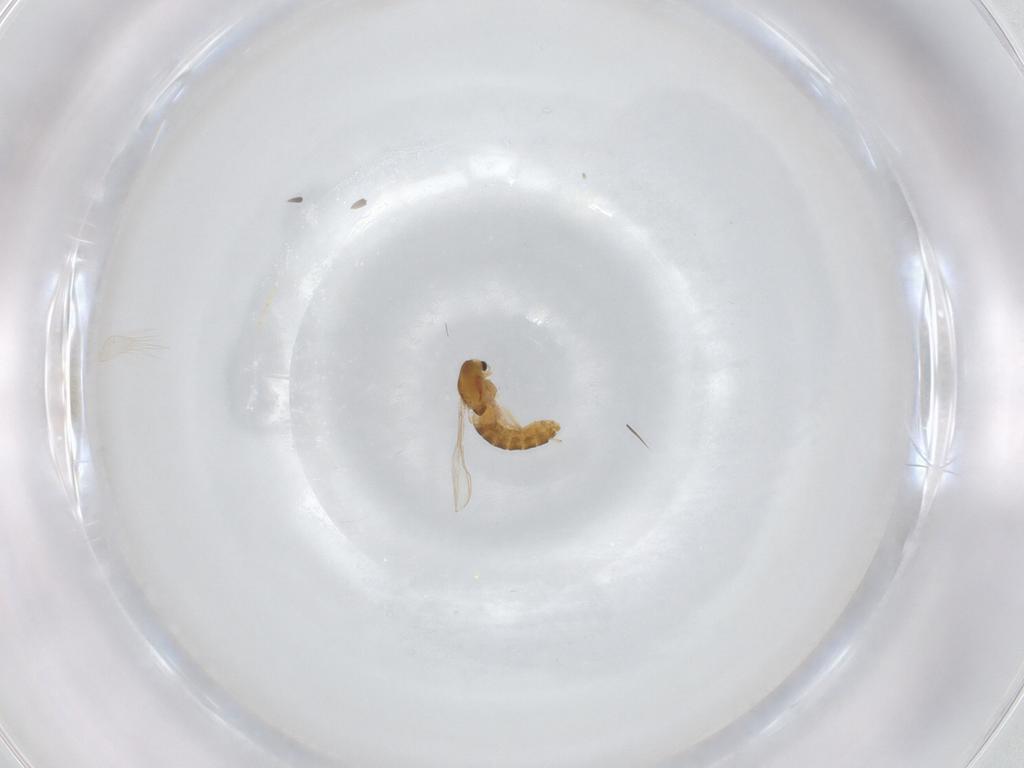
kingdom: Animalia
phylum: Arthropoda
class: Insecta
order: Diptera
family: Chironomidae
